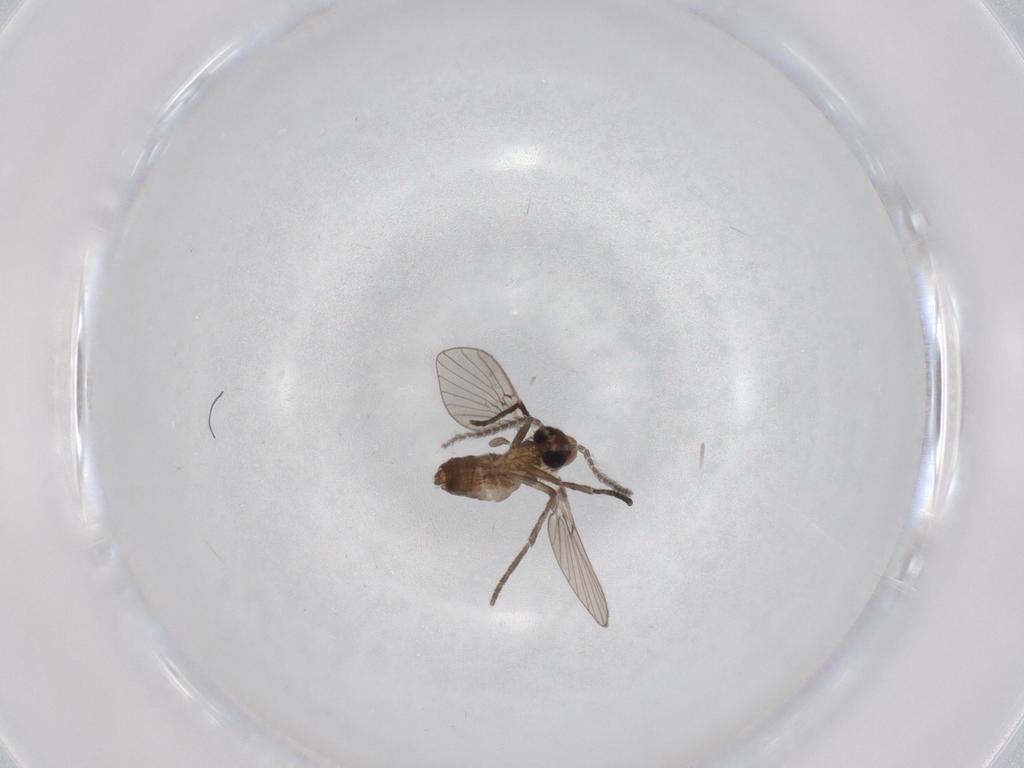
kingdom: Animalia
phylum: Arthropoda
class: Insecta
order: Diptera
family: Psychodidae
